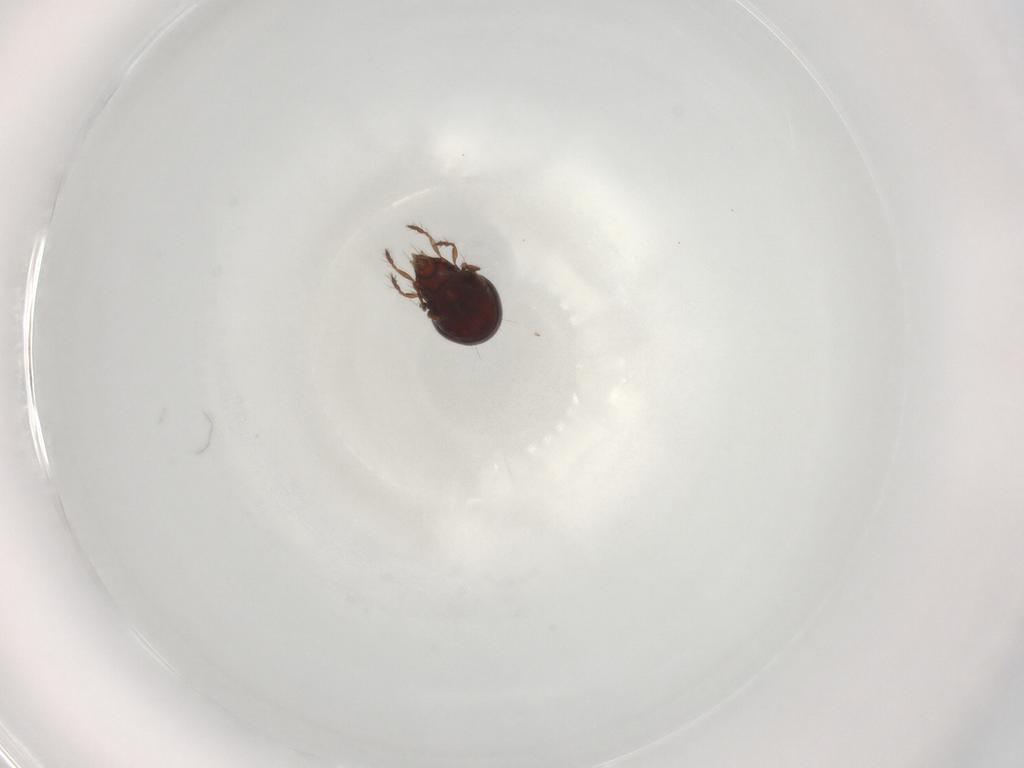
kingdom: Animalia
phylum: Arthropoda
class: Arachnida
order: Sarcoptiformes
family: Ceratoppiidae
